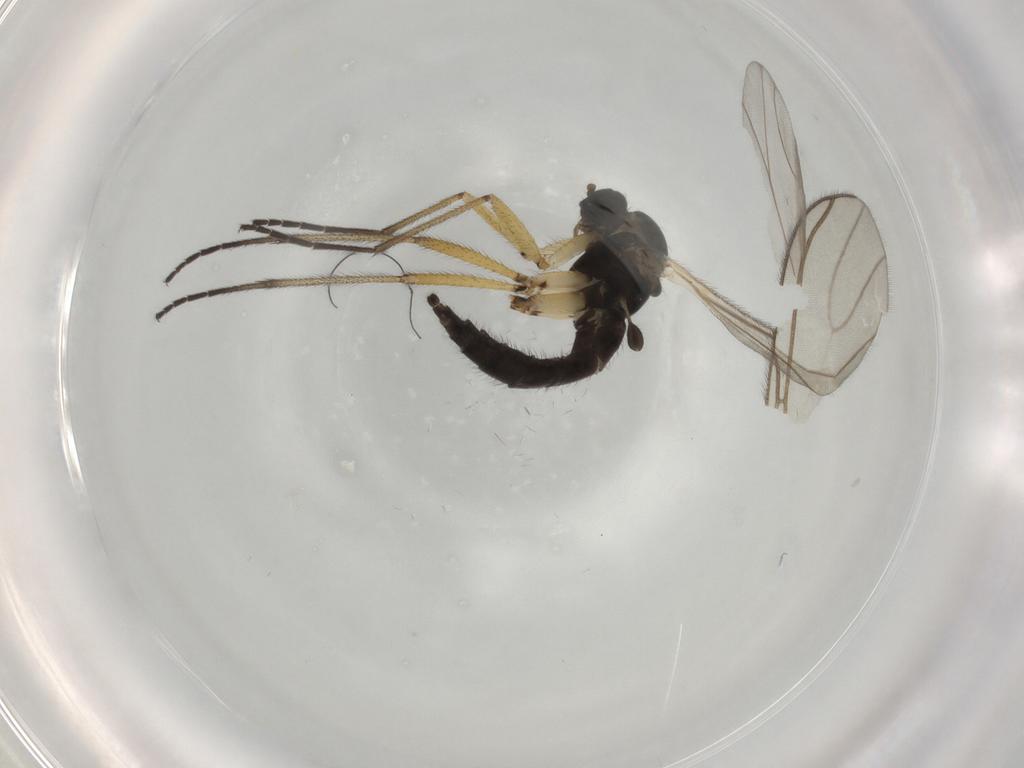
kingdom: Animalia
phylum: Arthropoda
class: Insecta
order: Diptera
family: Sciaridae
